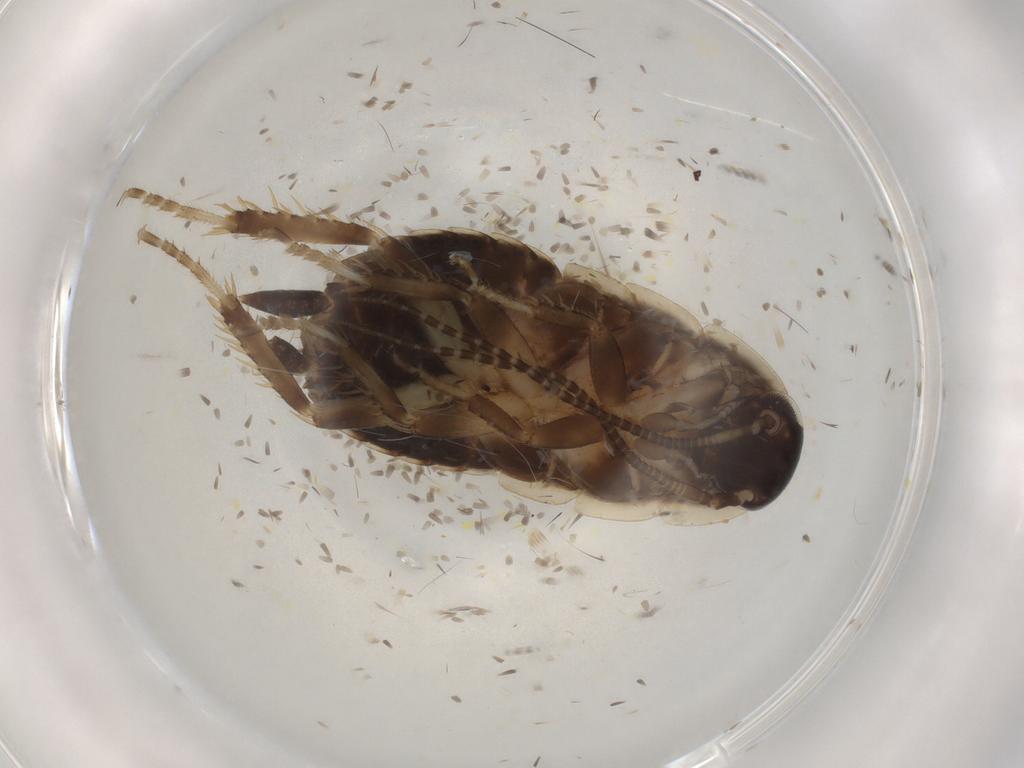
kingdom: Animalia
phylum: Arthropoda
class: Insecta
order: Blattodea
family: Ectobiidae
